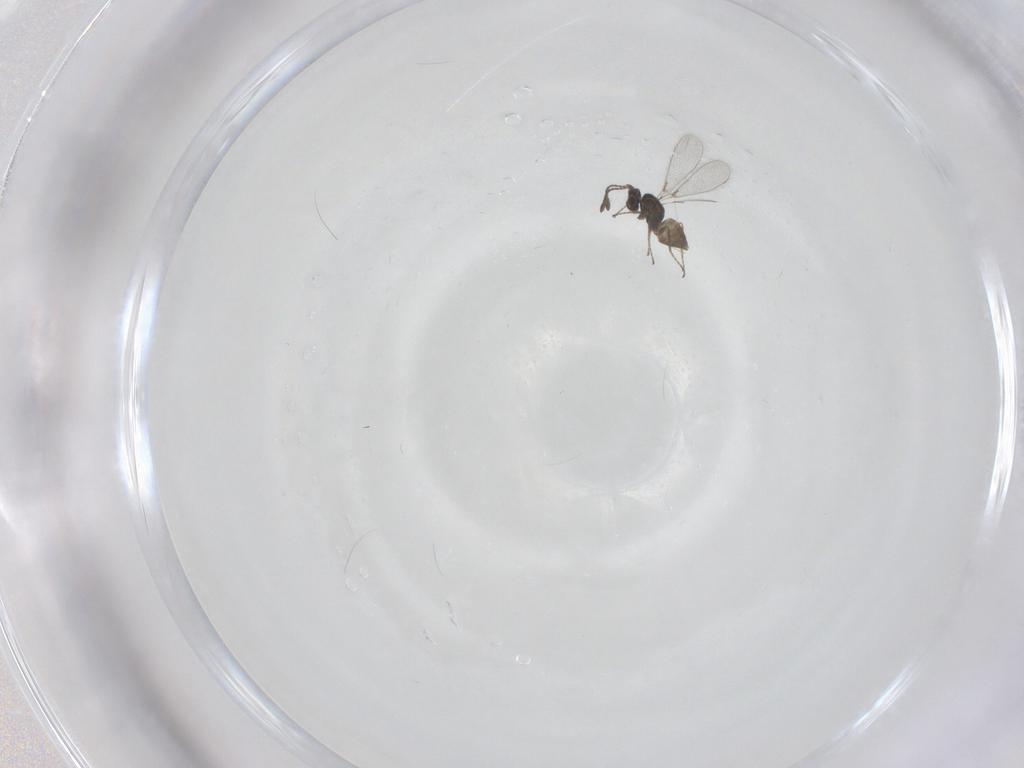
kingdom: Animalia
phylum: Arthropoda
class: Insecta
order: Hymenoptera
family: Mymaridae
